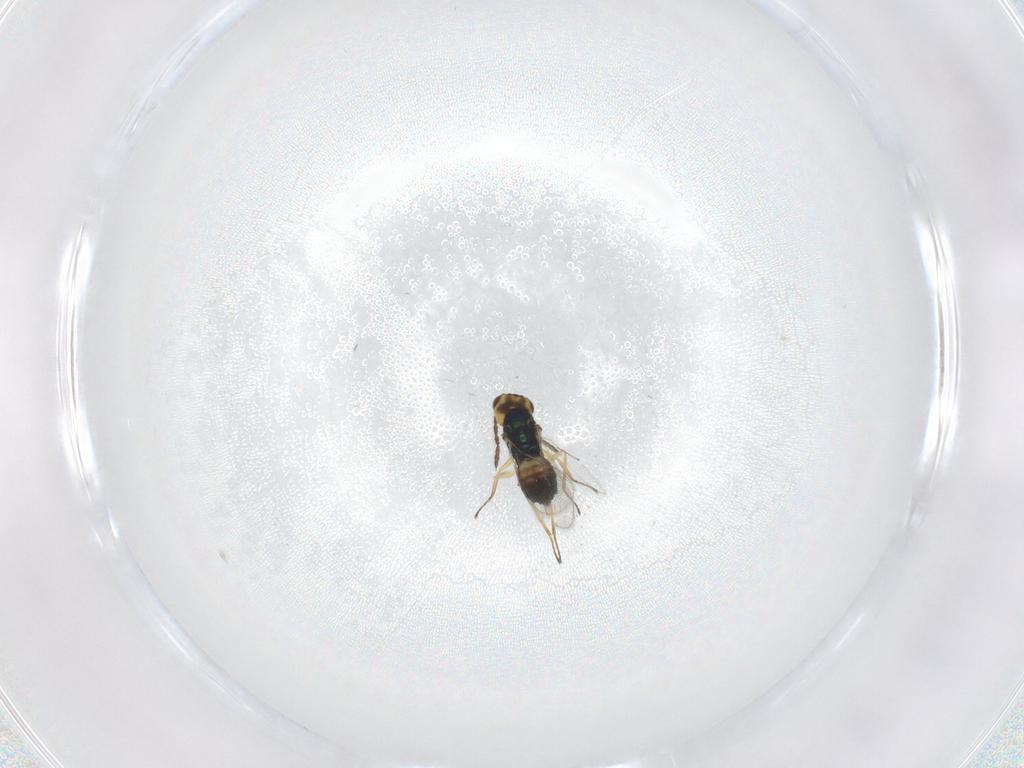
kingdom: Animalia
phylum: Arthropoda
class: Insecta
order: Hymenoptera
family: Eulophidae
